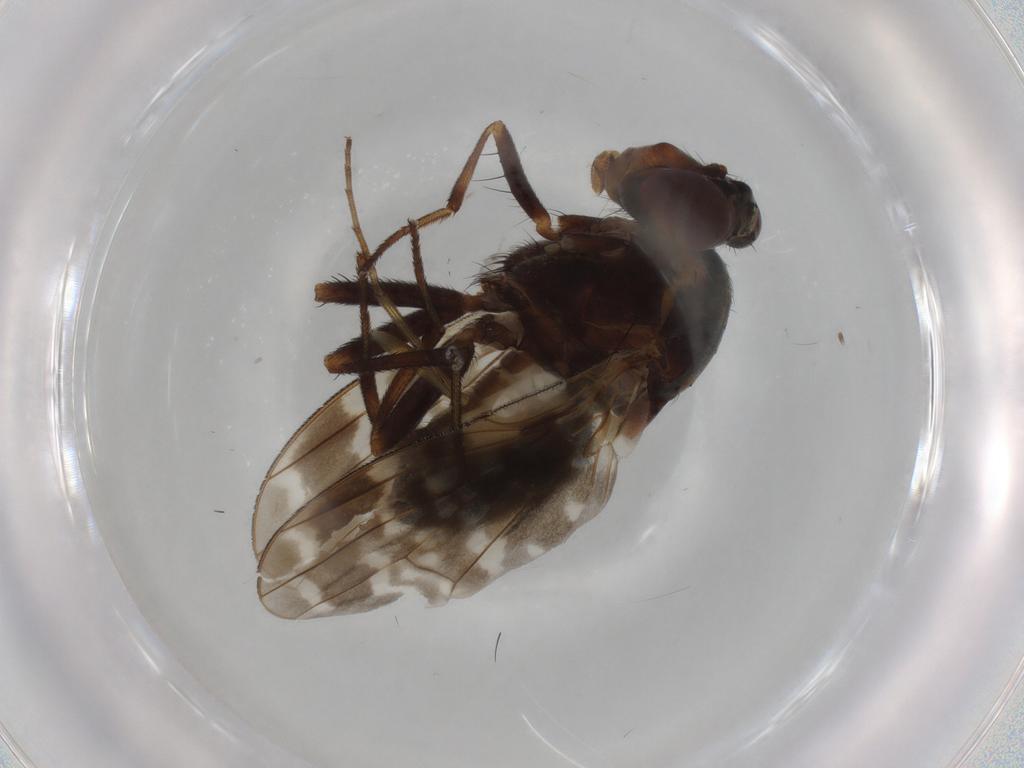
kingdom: Animalia
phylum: Arthropoda
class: Insecta
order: Diptera
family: Lauxaniidae
